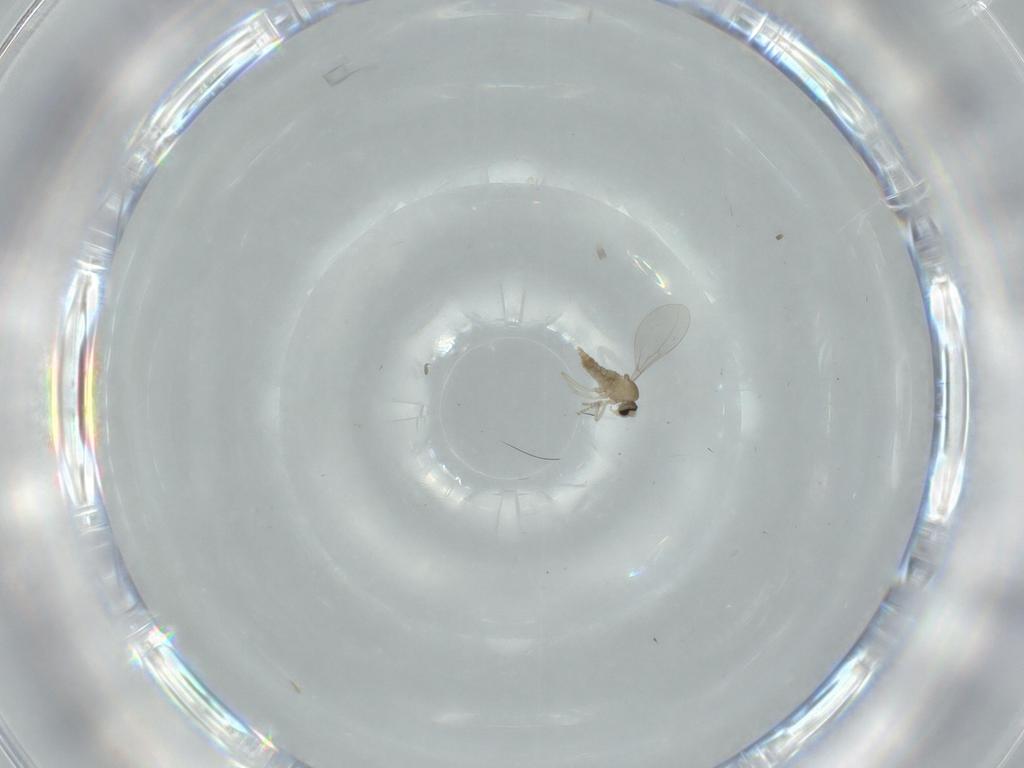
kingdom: Animalia
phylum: Arthropoda
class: Insecta
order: Diptera
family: Cecidomyiidae
